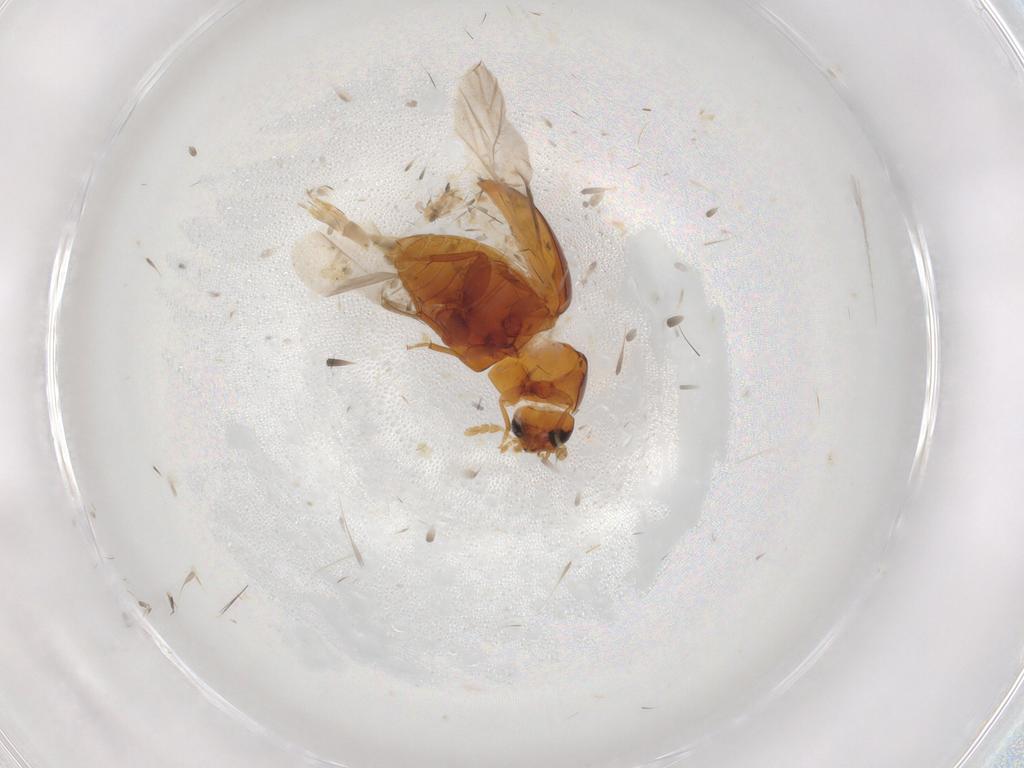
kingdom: Animalia
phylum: Arthropoda
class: Insecta
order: Coleoptera
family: Phalacridae
